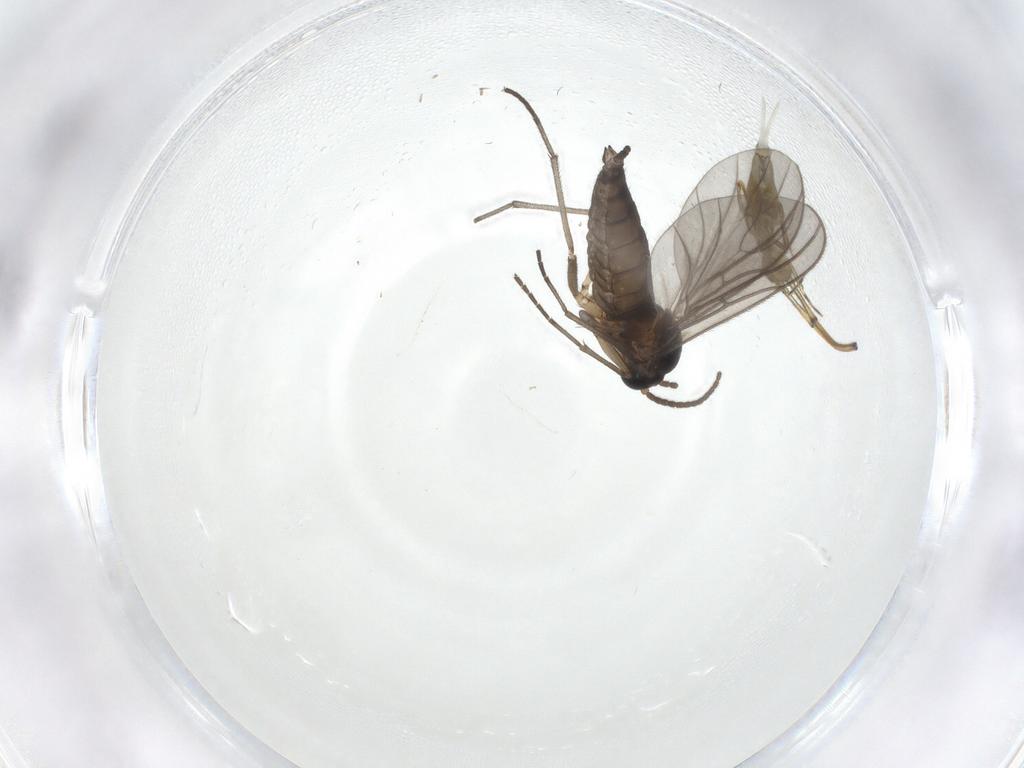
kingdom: Animalia
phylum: Arthropoda
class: Insecta
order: Diptera
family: Sciaridae
